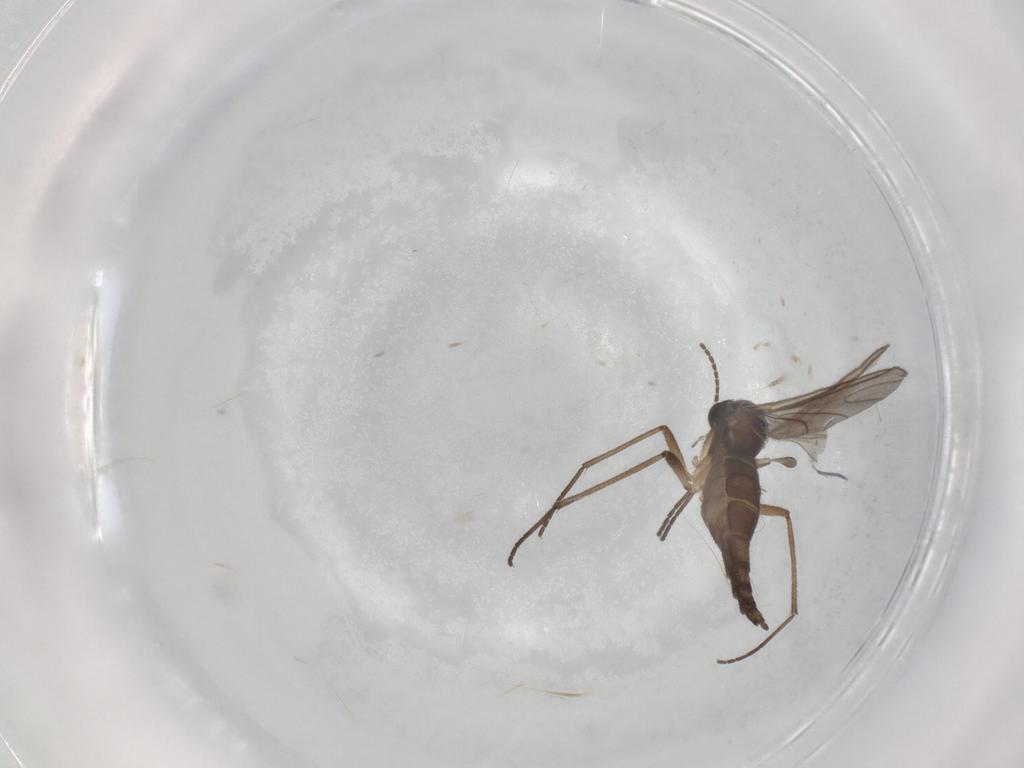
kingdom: Animalia
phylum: Arthropoda
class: Insecta
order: Diptera
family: Sciaridae
